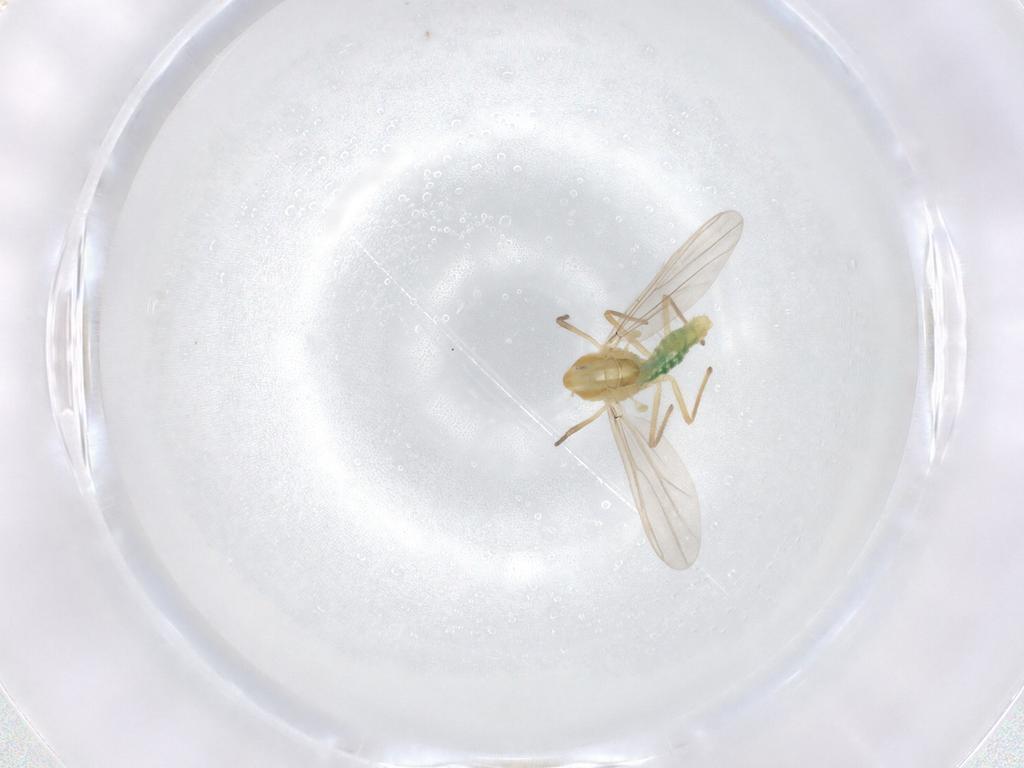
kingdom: Animalia
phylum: Arthropoda
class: Insecta
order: Diptera
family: Chironomidae
